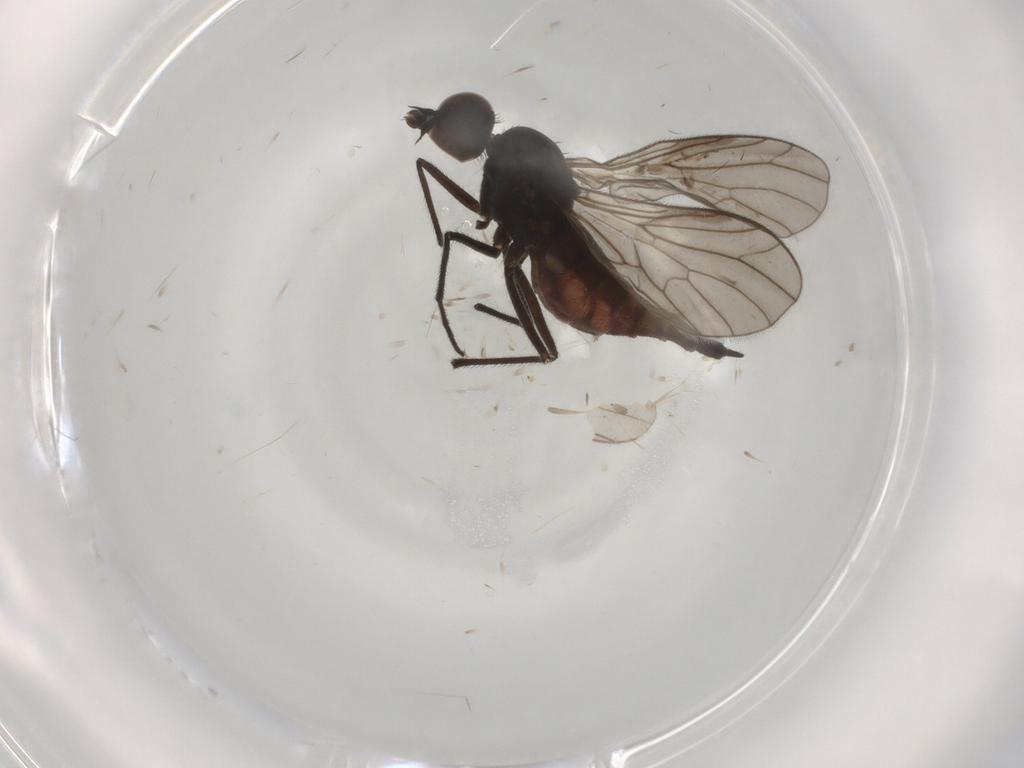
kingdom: Animalia
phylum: Arthropoda
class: Insecta
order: Diptera
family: Empididae
